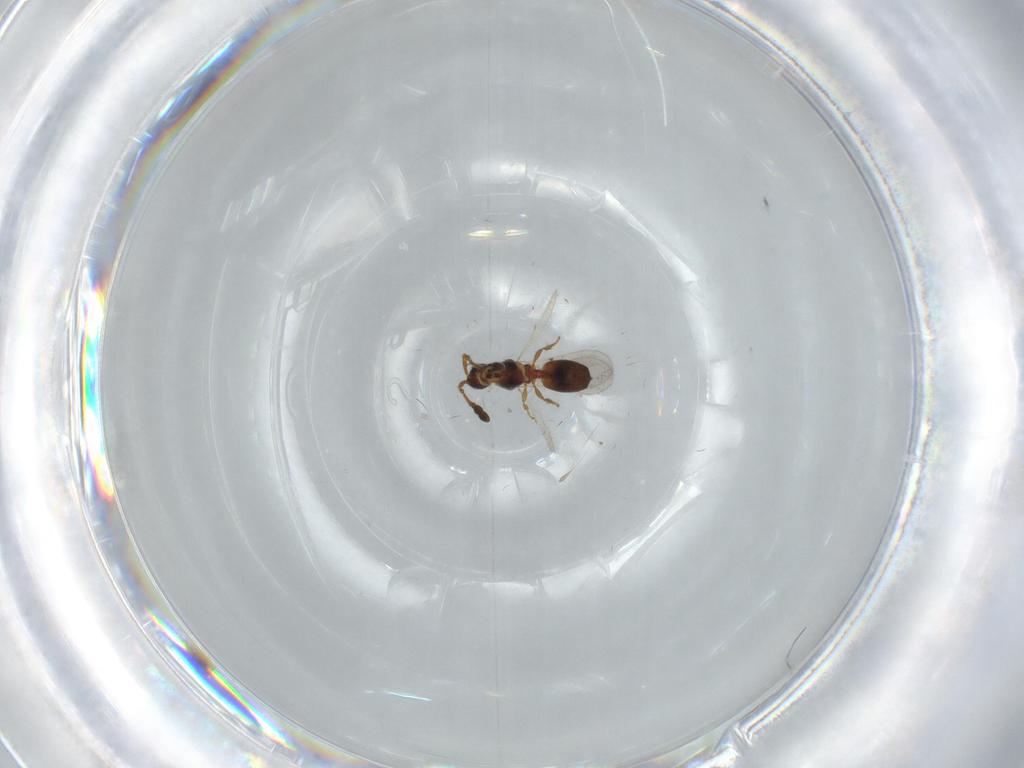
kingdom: Animalia
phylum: Arthropoda
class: Insecta
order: Hymenoptera
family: Diapriidae
